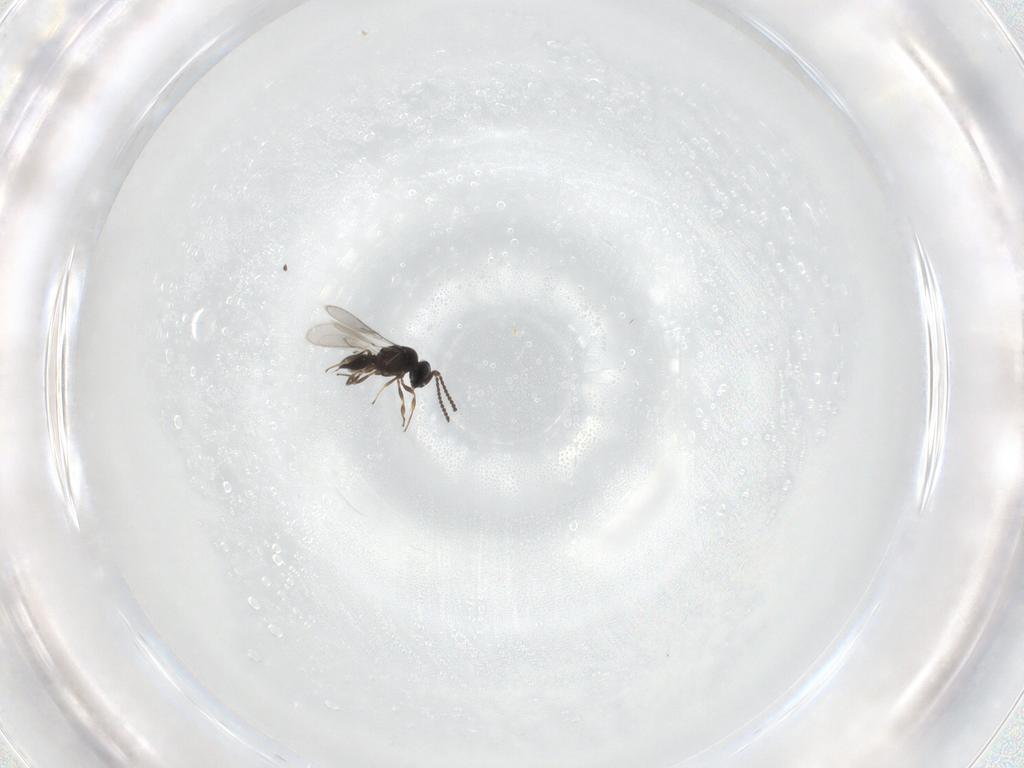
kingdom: Animalia
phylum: Arthropoda
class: Insecta
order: Hymenoptera
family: Scelionidae
